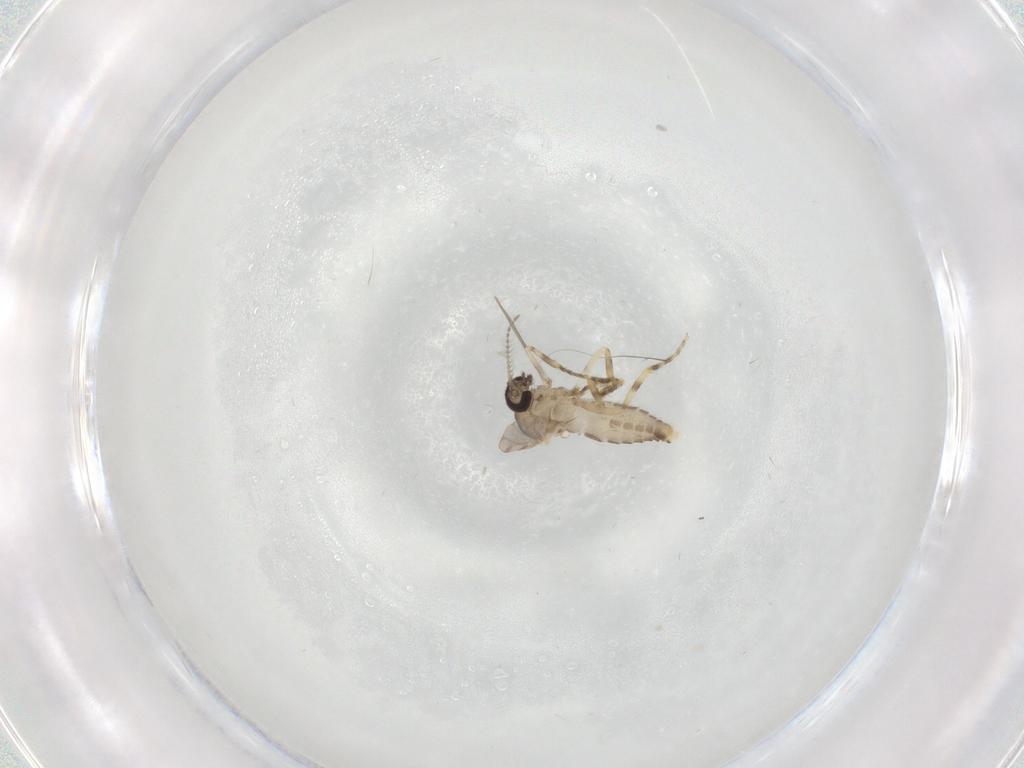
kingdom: Animalia
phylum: Arthropoda
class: Insecta
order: Diptera
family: Ceratopogonidae
